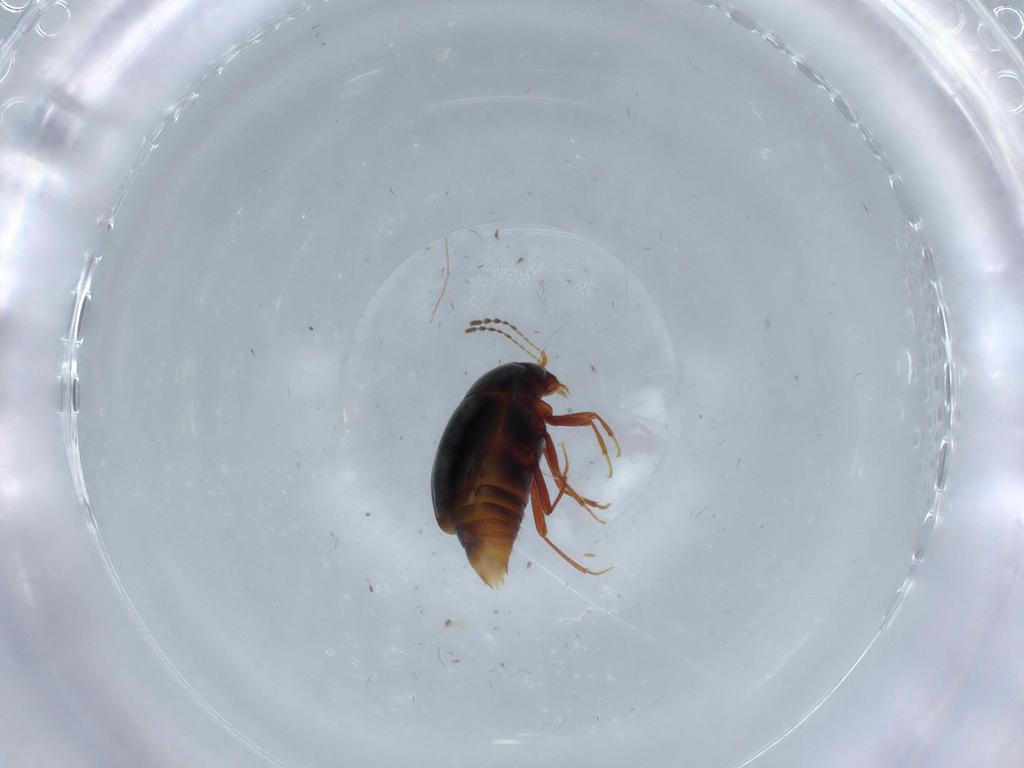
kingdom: Animalia
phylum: Arthropoda
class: Insecta
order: Coleoptera
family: Staphylinidae
